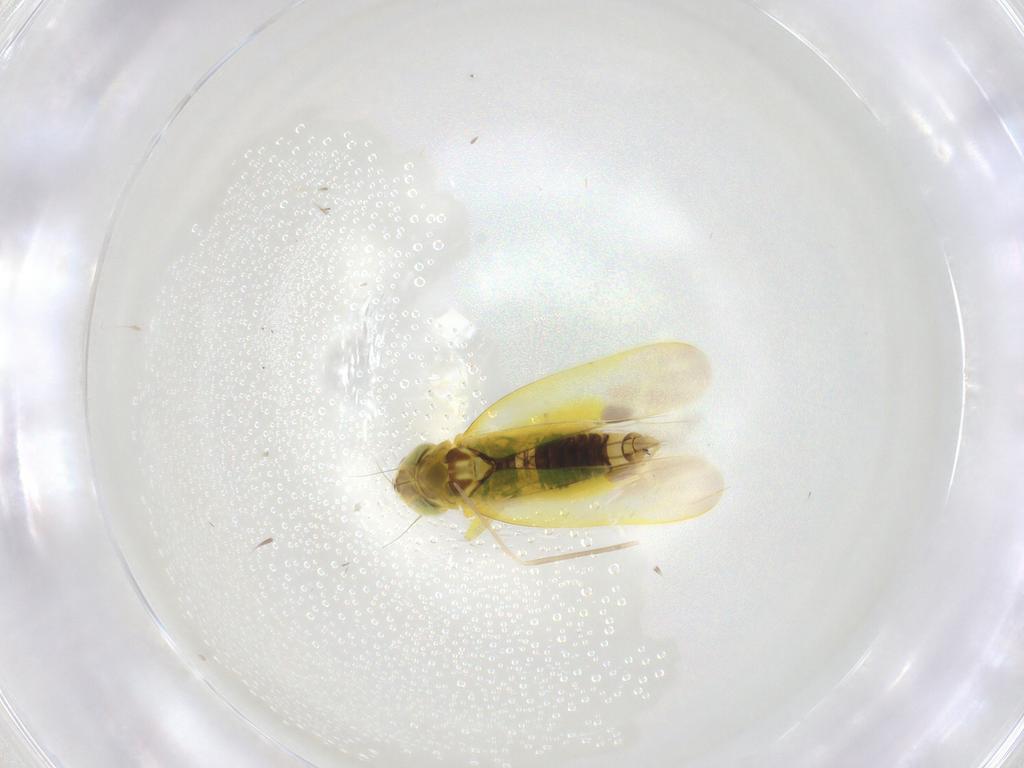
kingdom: Animalia
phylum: Arthropoda
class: Insecta
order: Hemiptera
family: Cicadellidae
